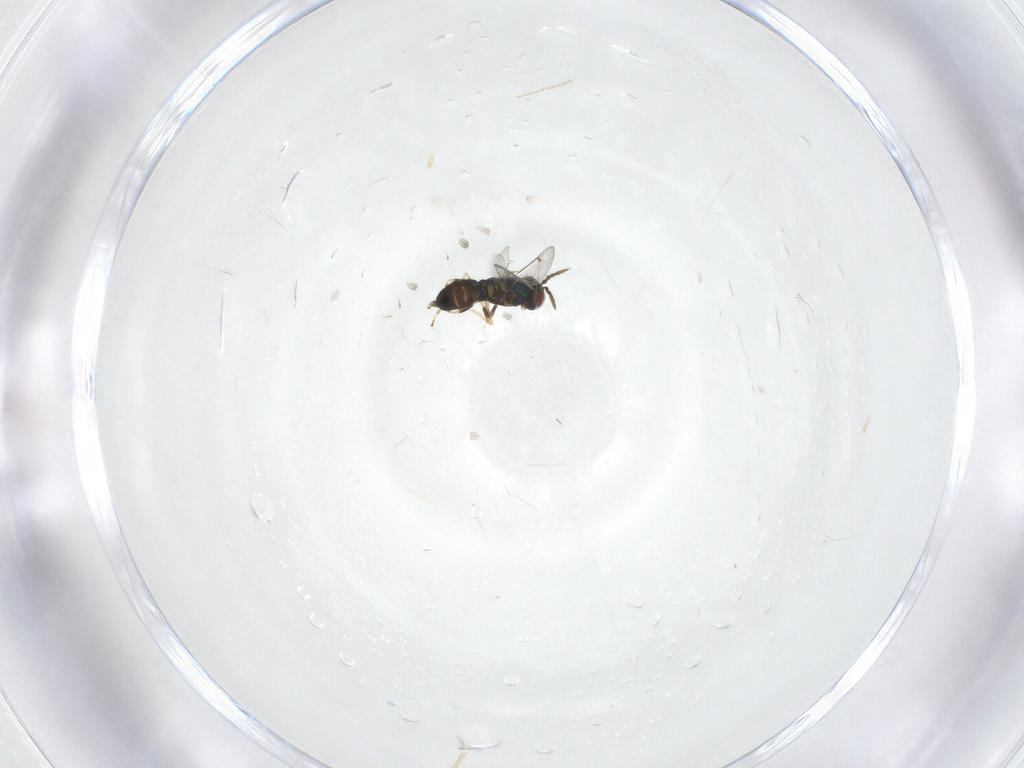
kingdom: Animalia
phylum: Arthropoda
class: Insecta
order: Hymenoptera
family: Eulophidae
